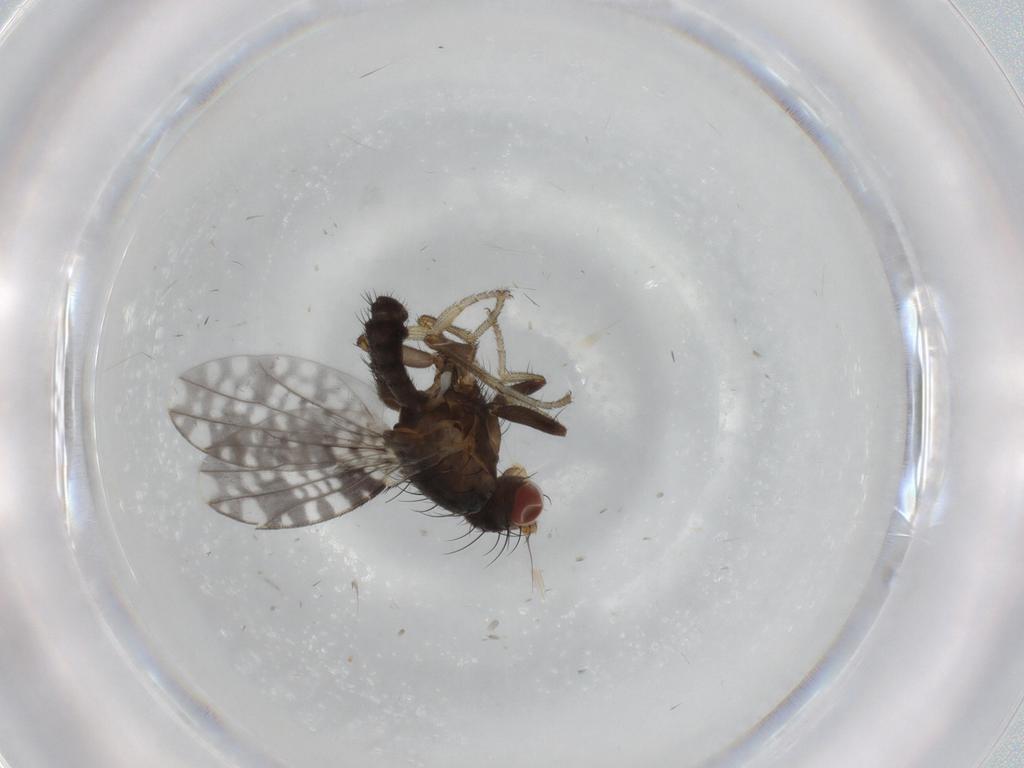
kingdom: Animalia
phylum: Arthropoda
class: Insecta
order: Diptera
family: Tephritidae
